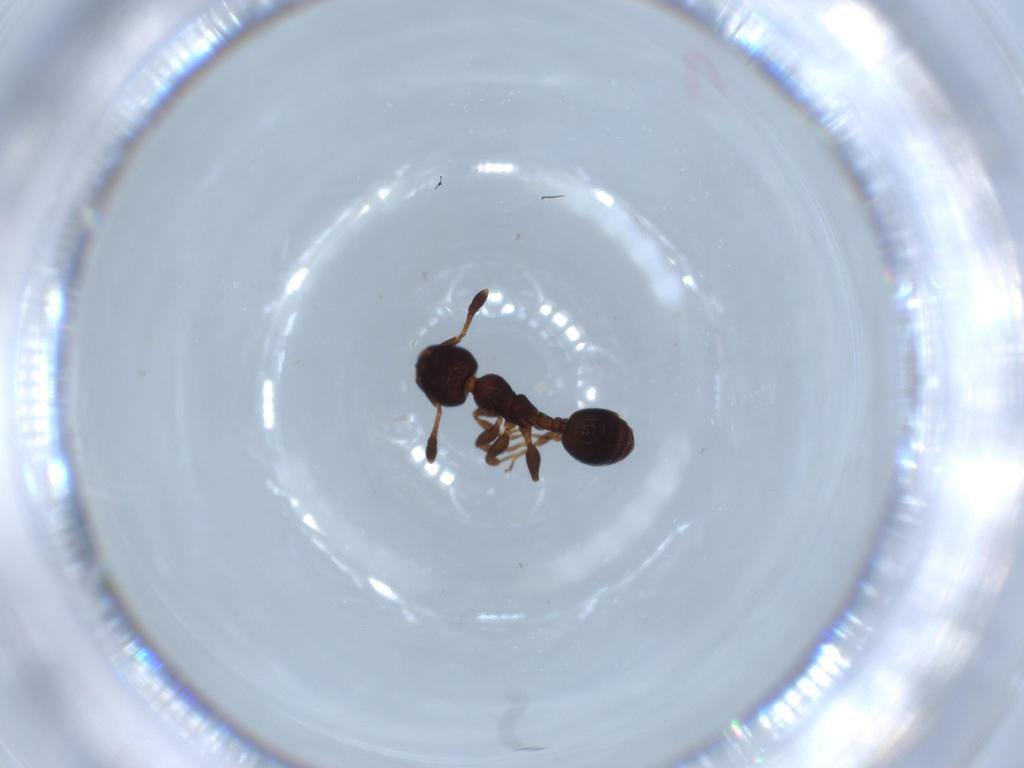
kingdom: Animalia
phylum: Arthropoda
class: Insecta
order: Hymenoptera
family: Formicidae
